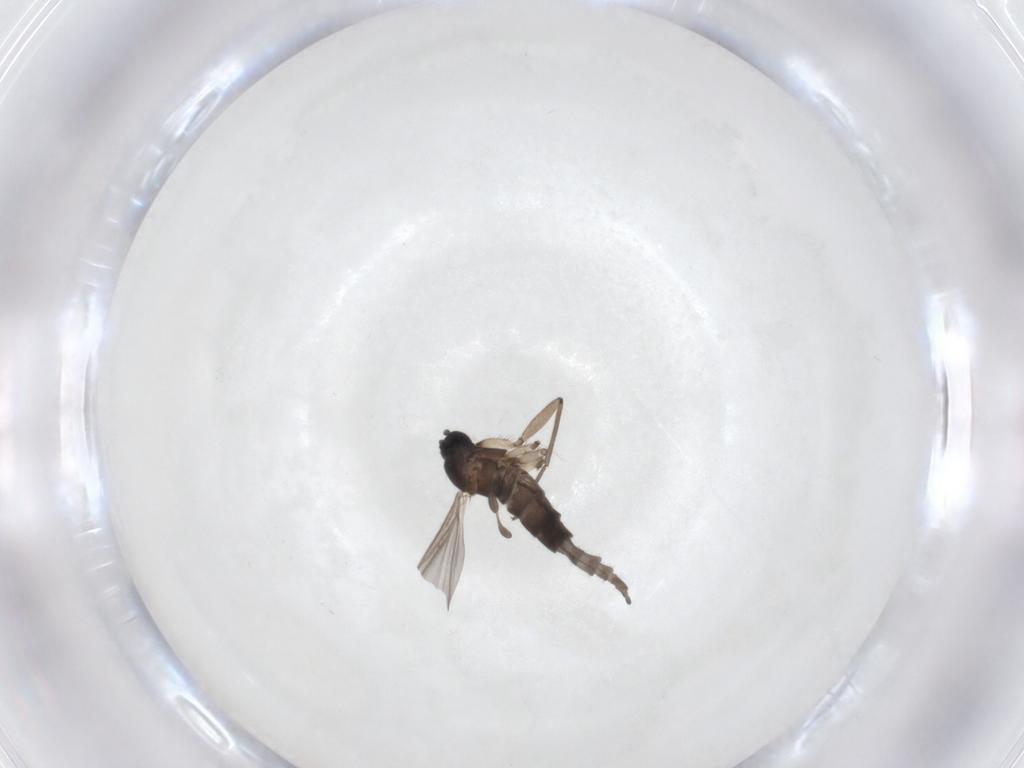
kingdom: Animalia
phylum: Arthropoda
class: Insecta
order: Diptera
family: Sciaridae
